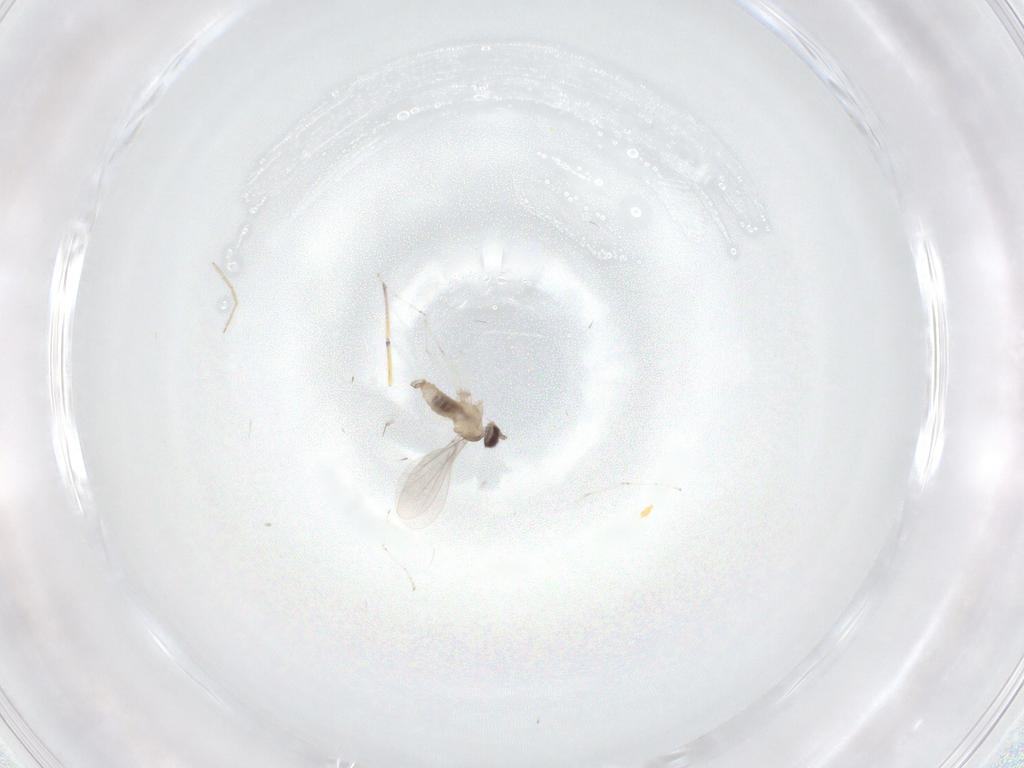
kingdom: Animalia
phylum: Arthropoda
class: Insecta
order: Diptera
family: Cecidomyiidae
